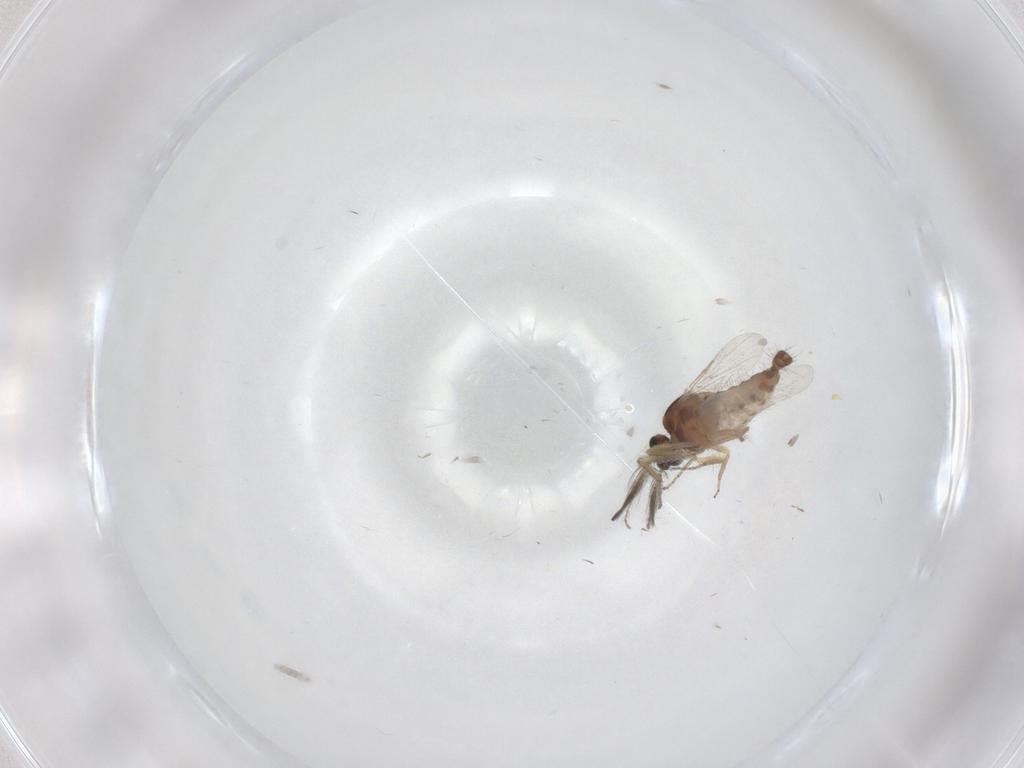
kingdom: Animalia
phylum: Arthropoda
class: Insecta
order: Diptera
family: Ceratopogonidae
